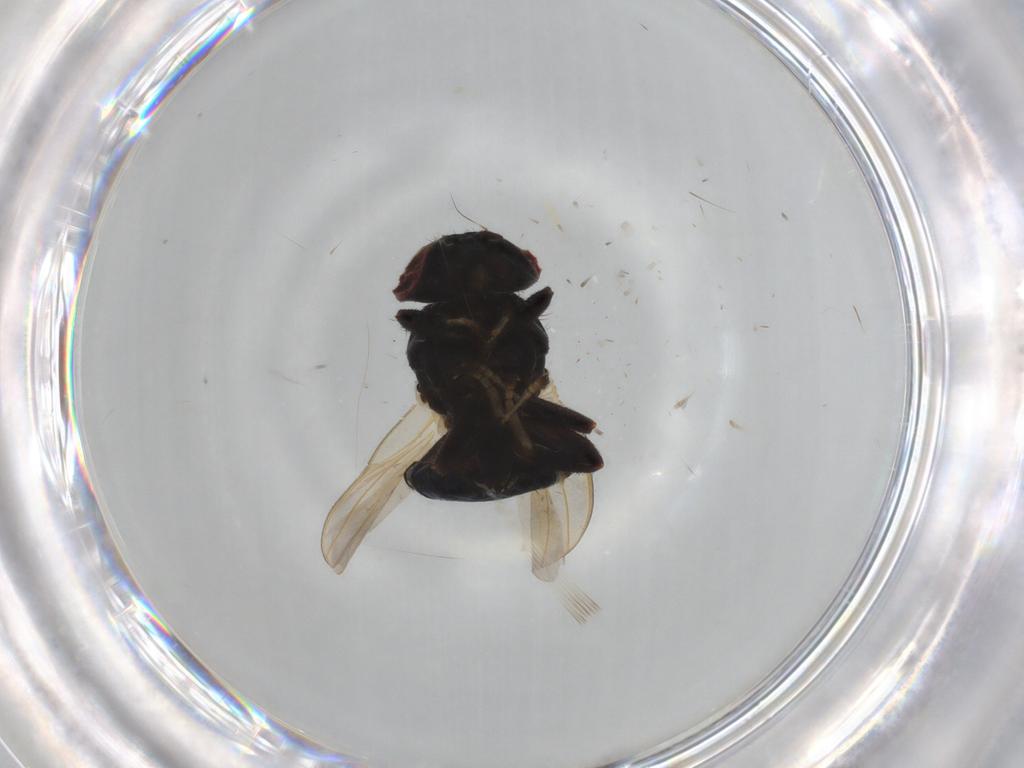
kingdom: Animalia
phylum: Arthropoda
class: Insecta
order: Diptera
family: Lonchaeidae
